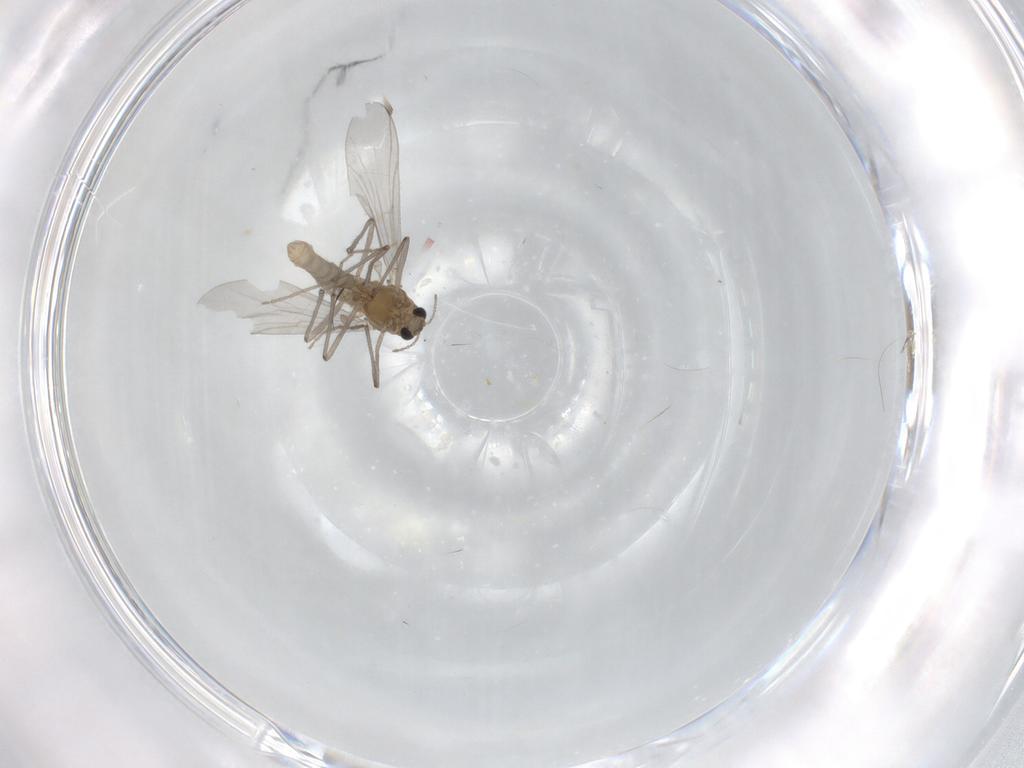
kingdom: Animalia
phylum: Arthropoda
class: Insecta
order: Diptera
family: Chironomidae
